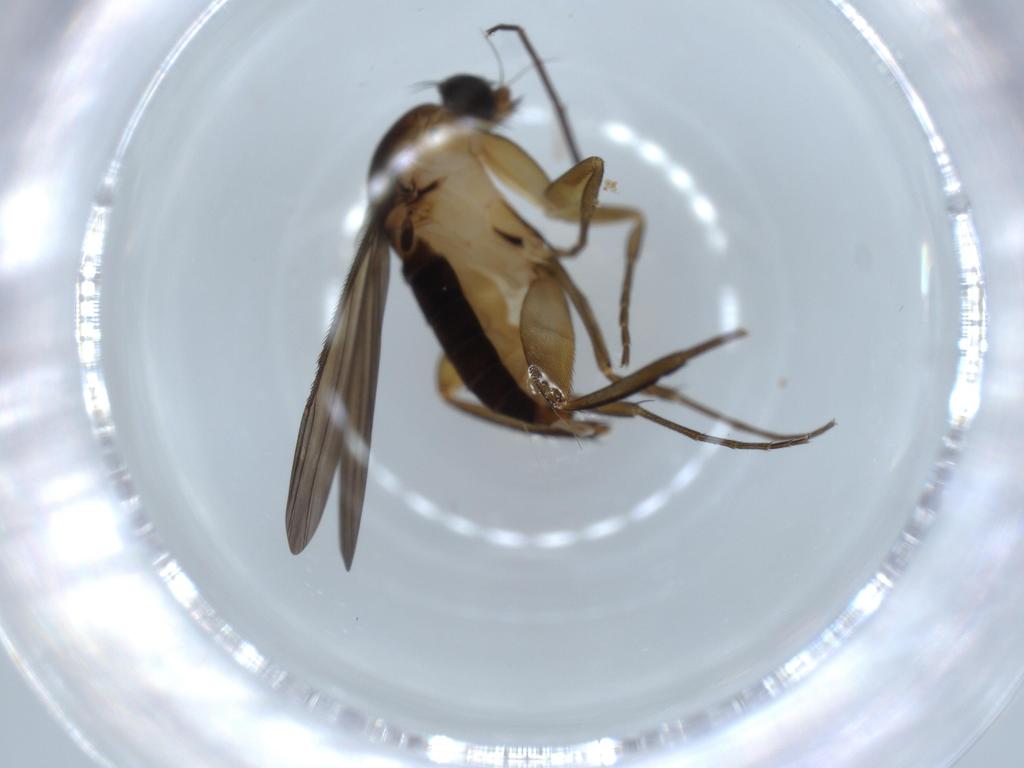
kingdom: Animalia
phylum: Arthropoda
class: Insecta
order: Diptera
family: Phoridae
